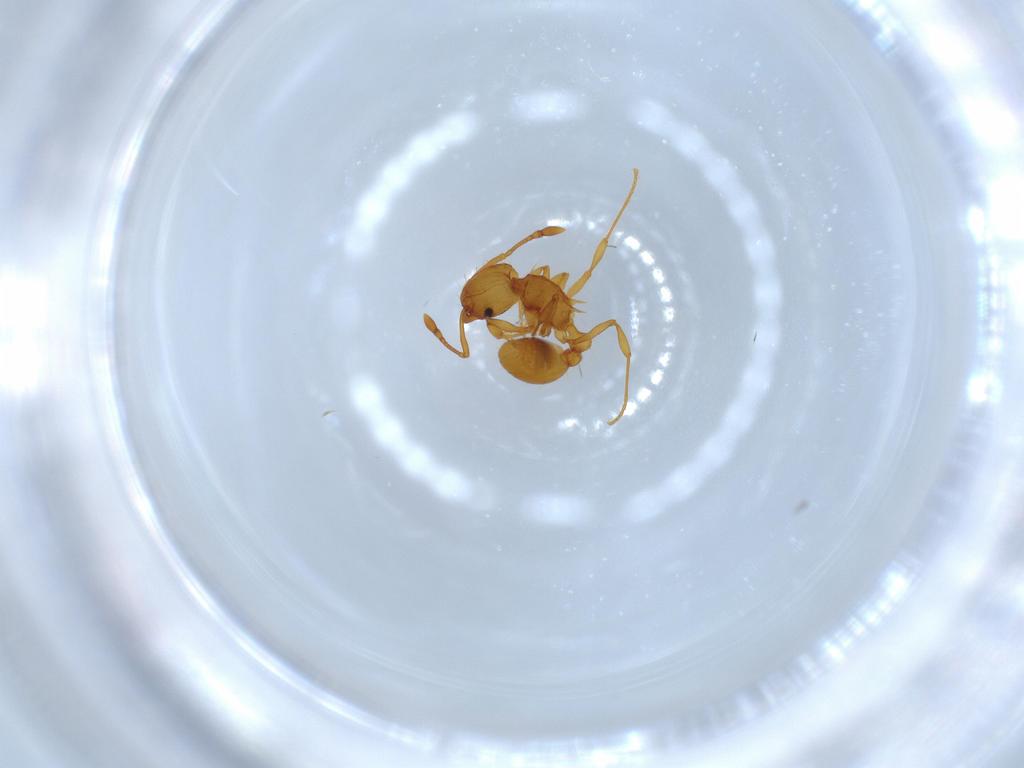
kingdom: Animalia
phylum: Arthropoda
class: Insecta
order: Hymenoptera
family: Formicidae
